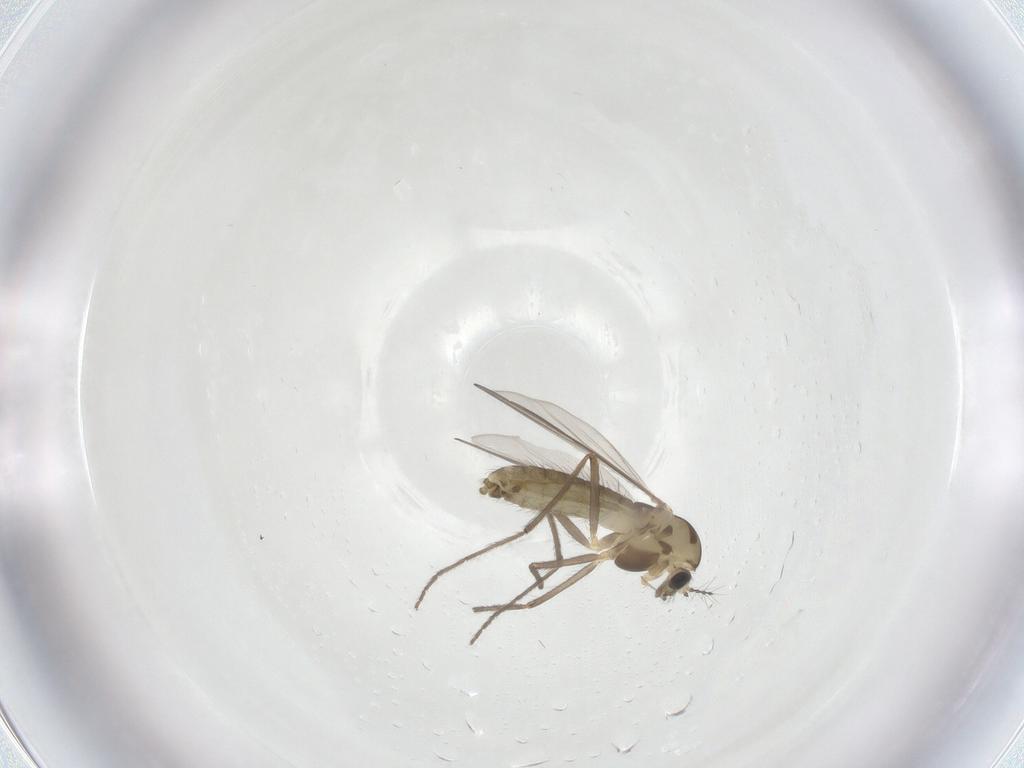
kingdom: Animalia
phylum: Arthropoda
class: Insecta
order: Diptera
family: Chironomidae
